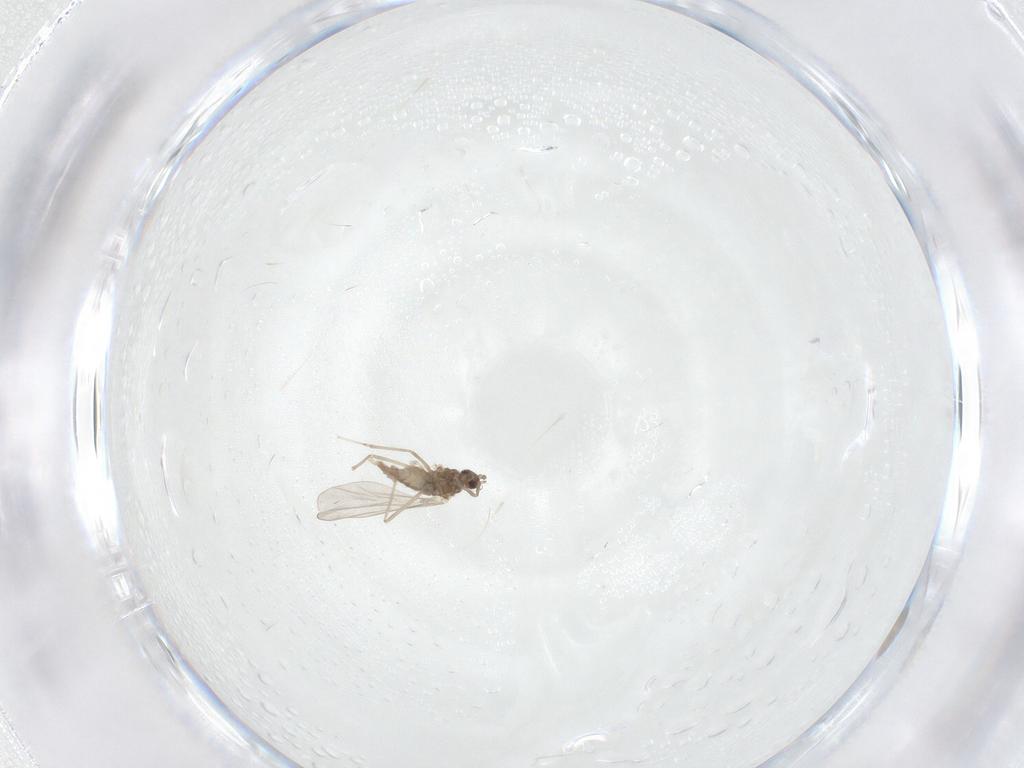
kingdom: Animalia
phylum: Arthropoda
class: Insecta
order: Diptera
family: Cecidomyiidae
